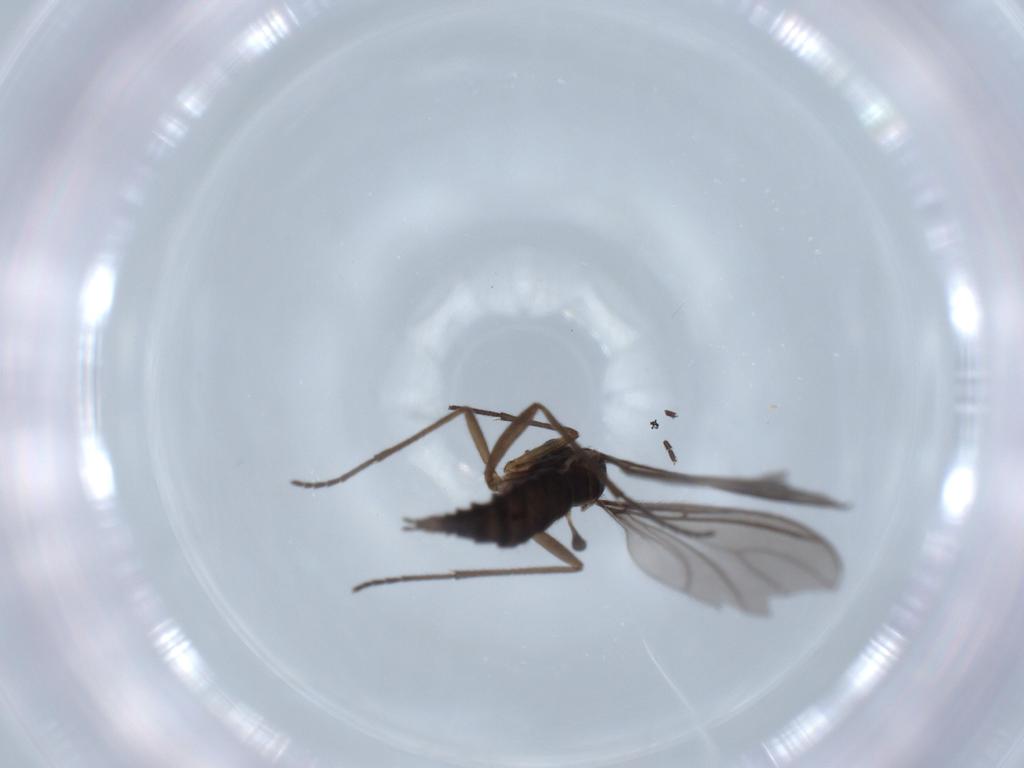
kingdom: Animalia
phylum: Arthropoda
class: Insecta
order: Diptera
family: Sciaridae
